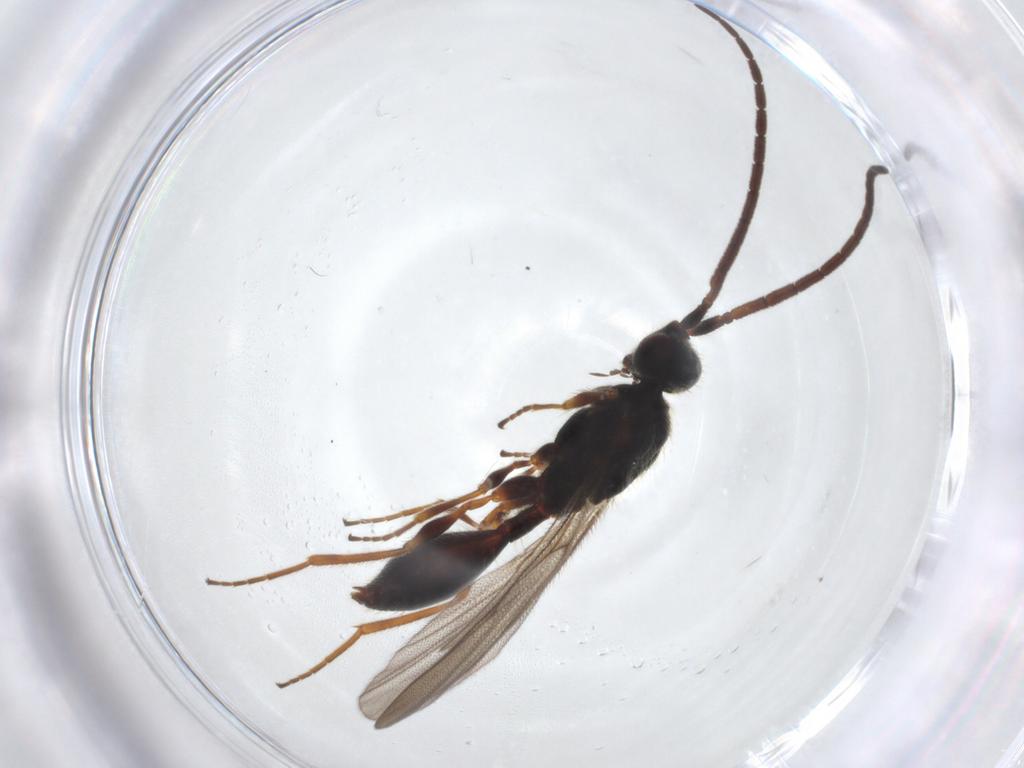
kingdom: Animalia
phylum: Arthropoda
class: Insecta
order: Hymenoptera
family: Diapriidae
